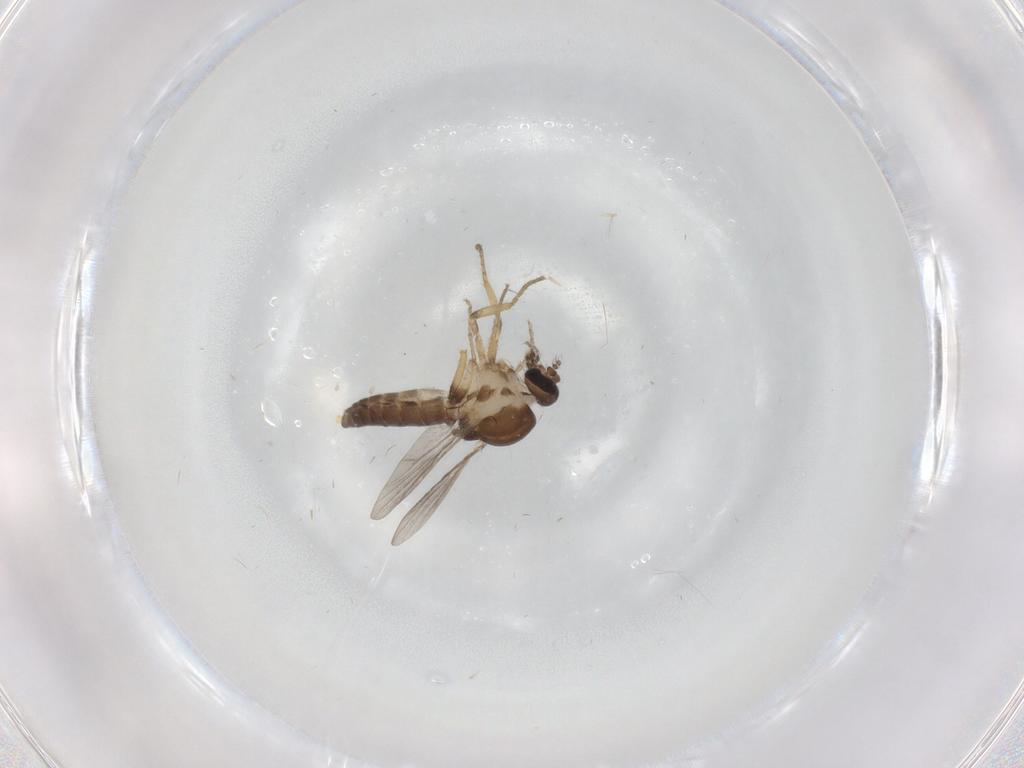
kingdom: Animalia
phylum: Arthropoda
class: Insecta
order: Diptera
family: Ceratopogonidae
